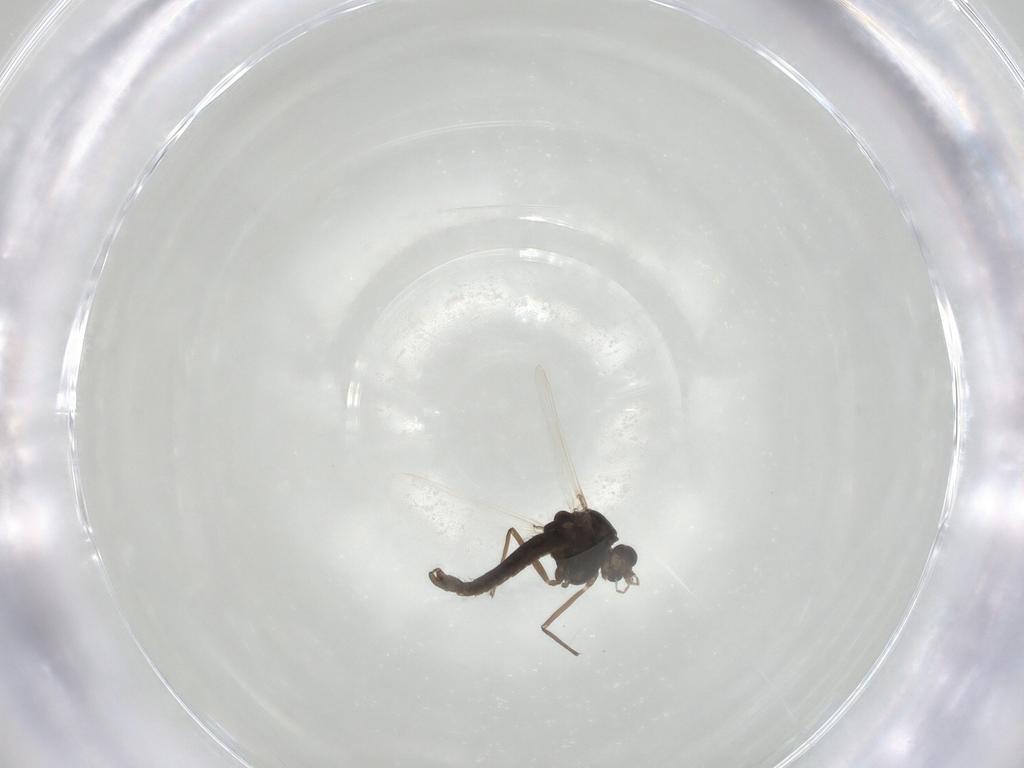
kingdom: Animalia
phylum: Arthropoda
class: Insecta
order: Diptera
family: Chironomidae
